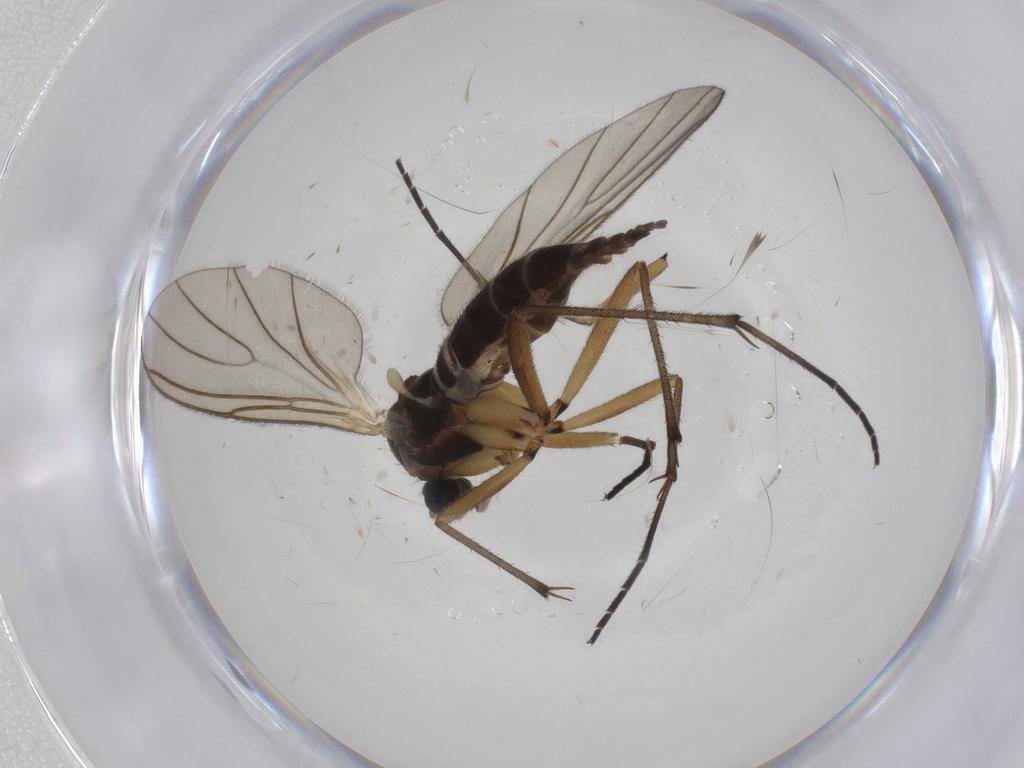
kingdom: Animalia
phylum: Arthropoda
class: Insecta
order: Diptera
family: Sciaridae
